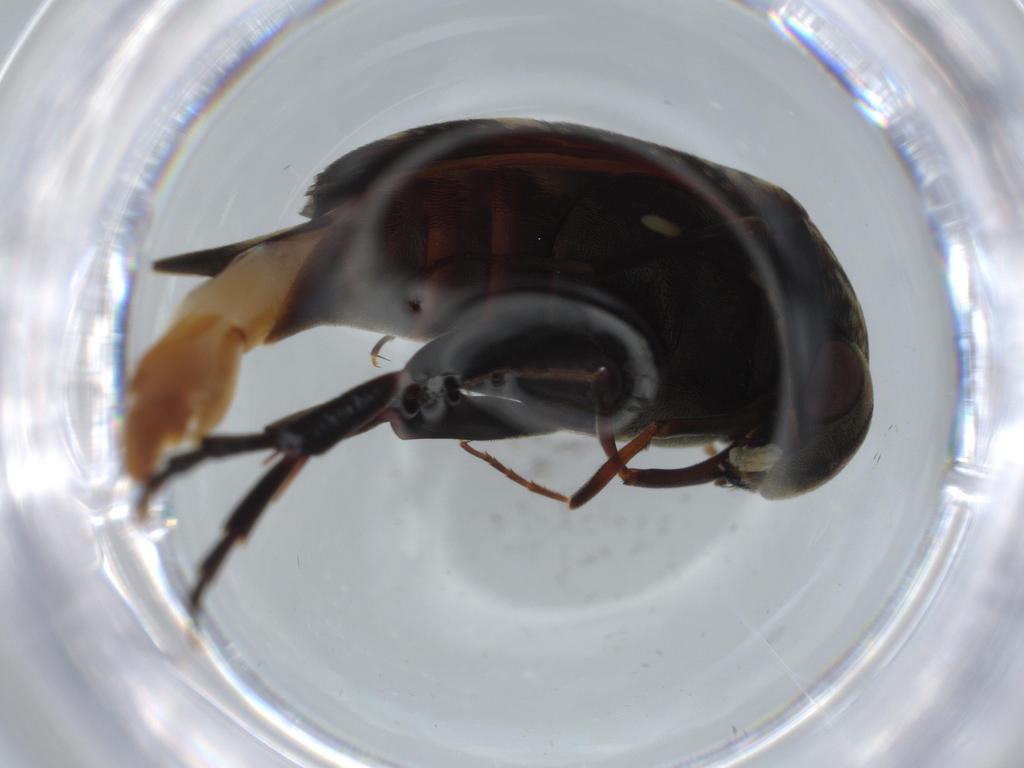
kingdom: Animalia
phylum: Arthropoda
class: Insecta
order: Coleoptera
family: Mordellidae
